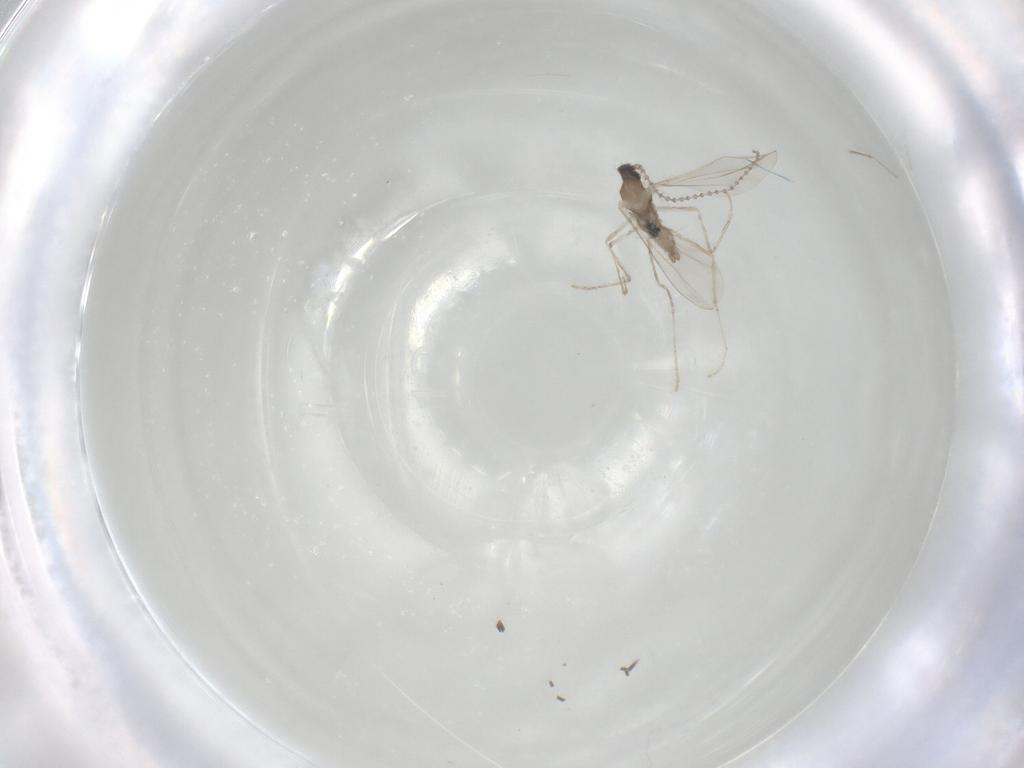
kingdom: Animalia
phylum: Arthropoda
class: Insecta
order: Diptera
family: Cecidomyiidae
